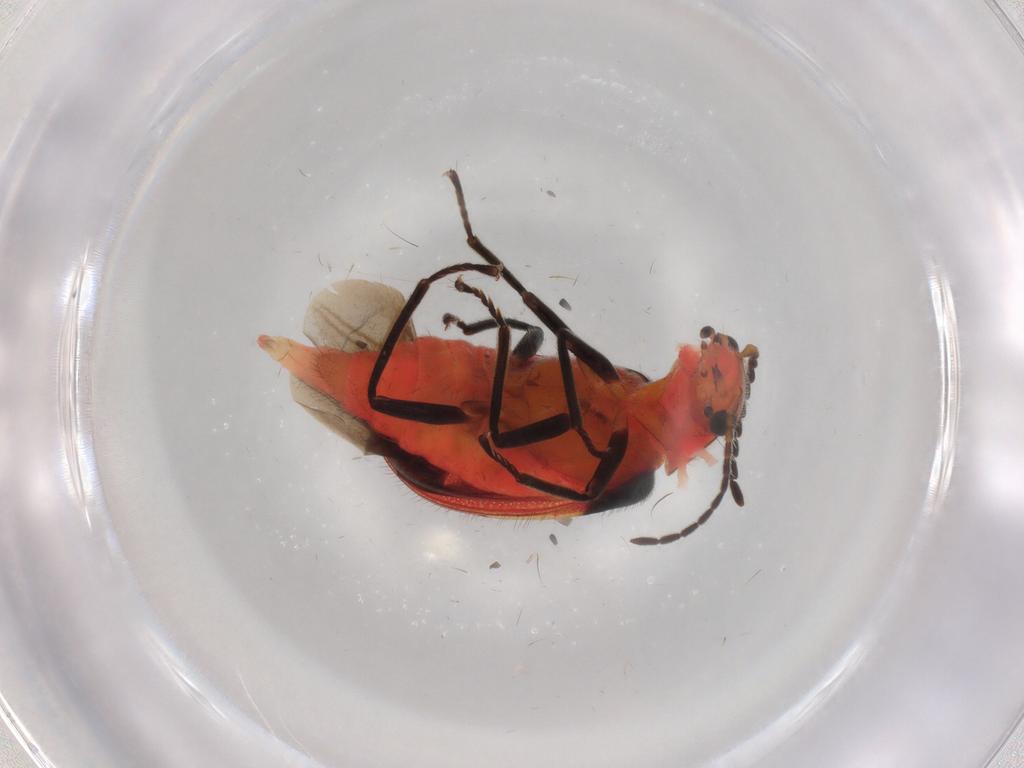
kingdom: Animalia
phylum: Arthropoda
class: Insecta
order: Coleoptera
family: Melyridae
